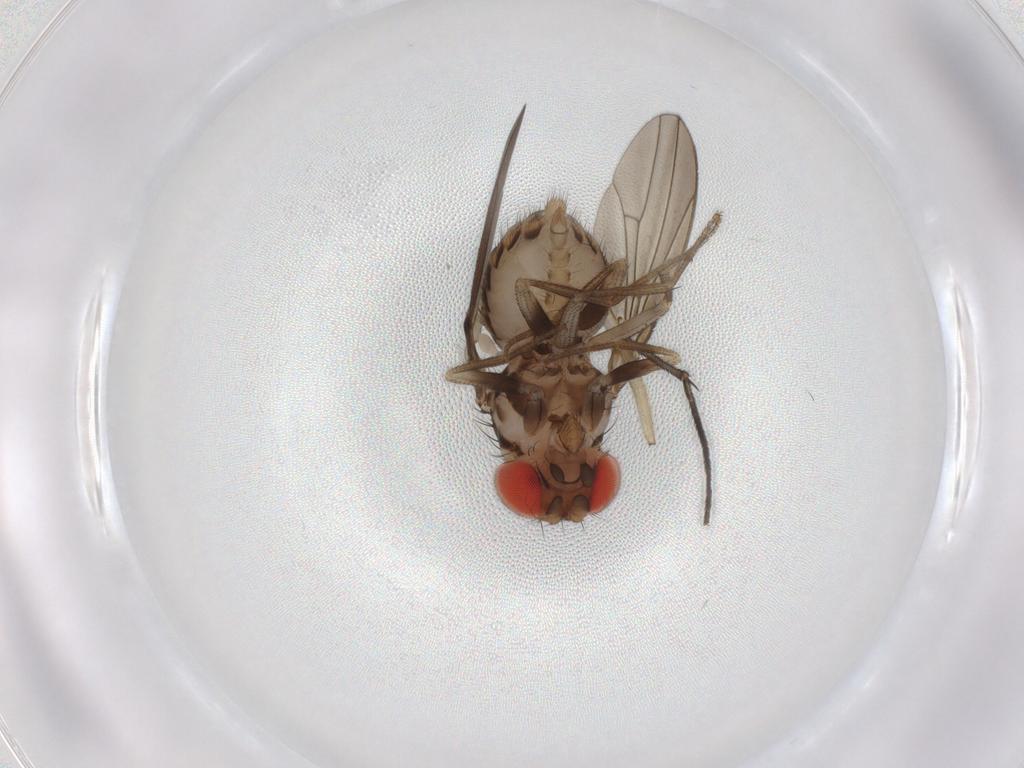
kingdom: Animalia
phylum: Arthropoda
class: Insecta
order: Diptera
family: Drosophilidae
